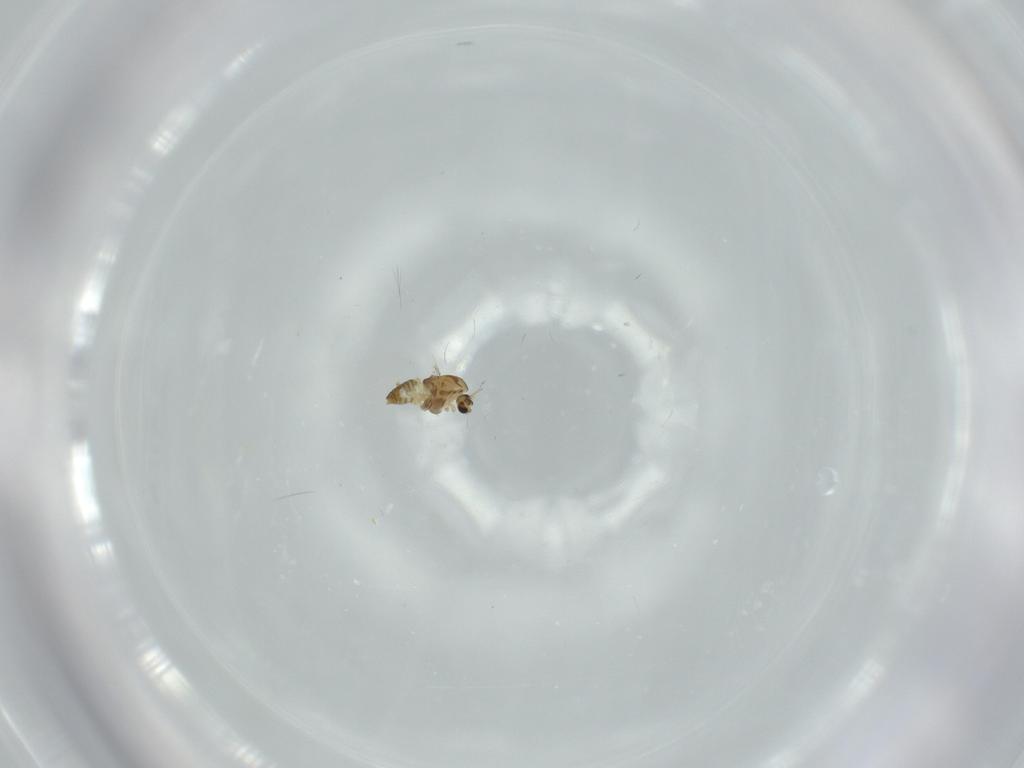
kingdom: Animalia
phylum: Arthropoda
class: Insecta
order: Diptera
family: Chironomidae
